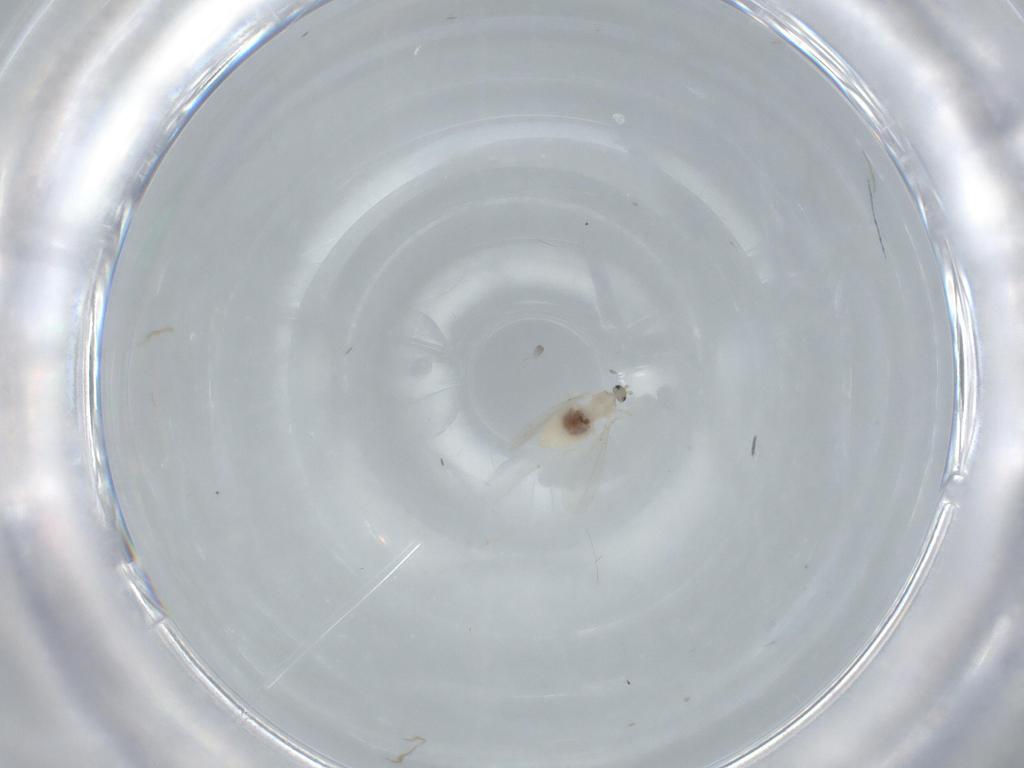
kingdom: Animalia
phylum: Arthropoda
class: Insecta
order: Diptera
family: Cecidomyiidae
